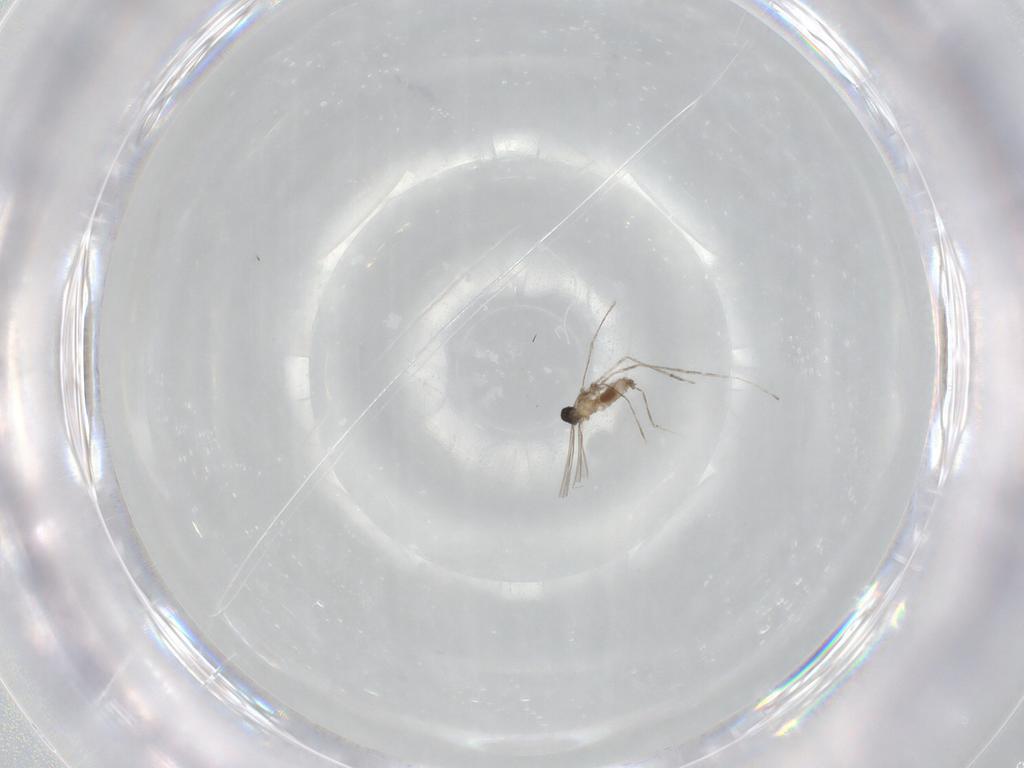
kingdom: Animalia
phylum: Arthropoda
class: Insecta
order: Diptera
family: Cecidomyiidae
